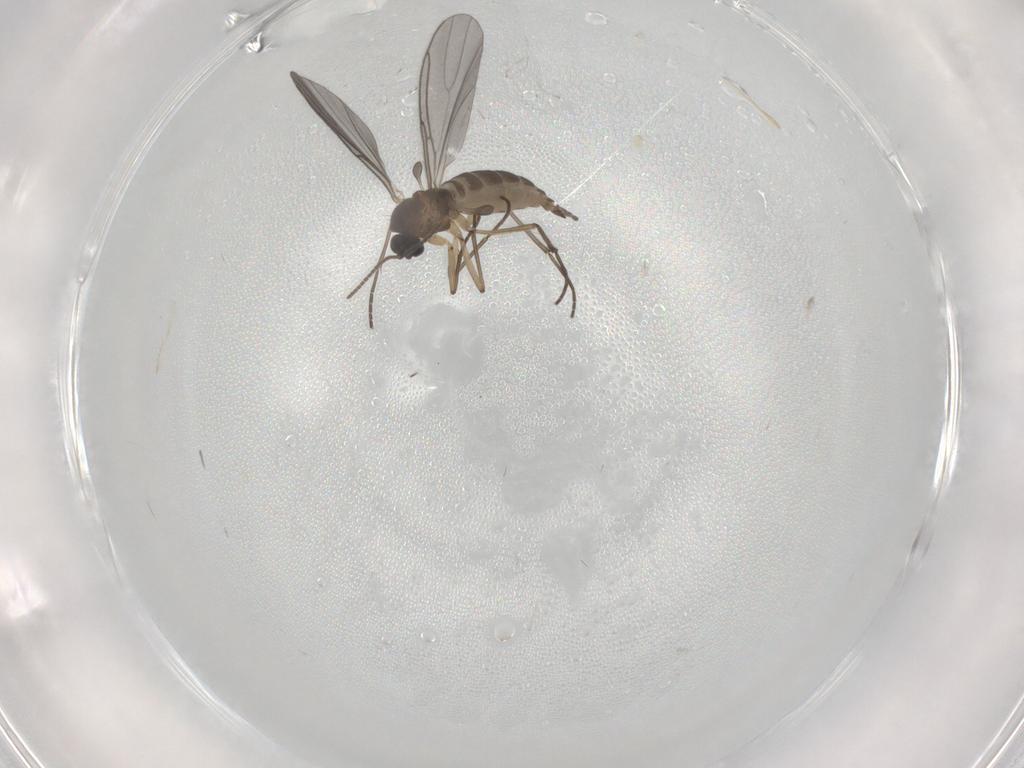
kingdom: Animalia
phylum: Arthropoda
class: Insecta
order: Diptera
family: Sciaridae
